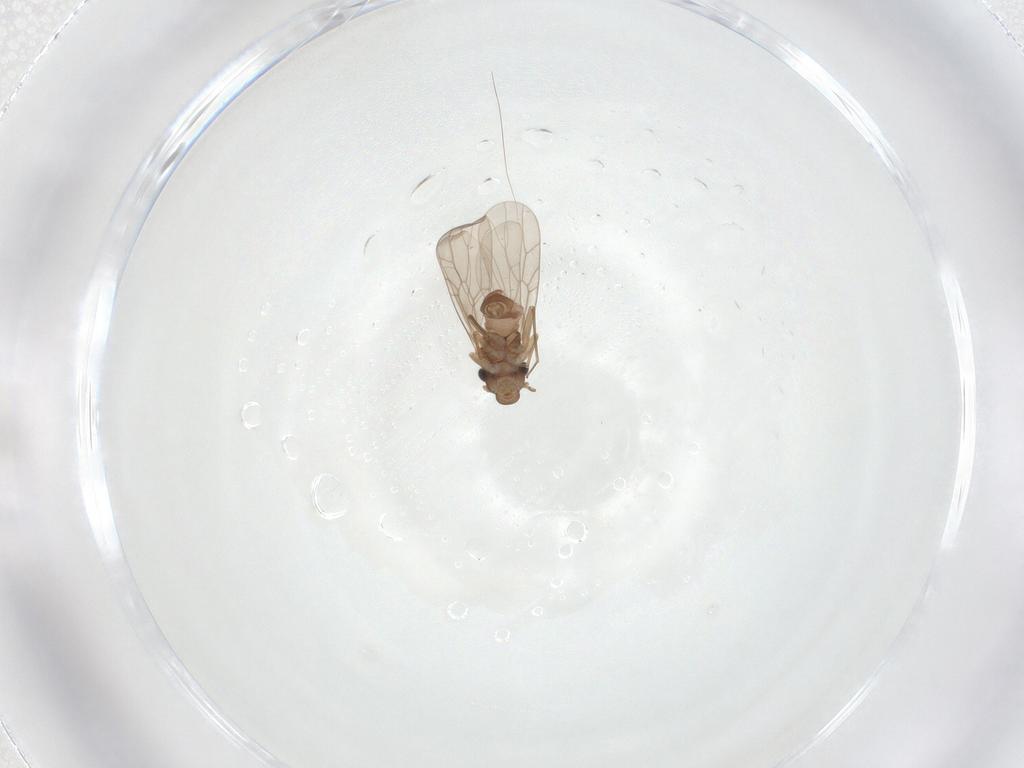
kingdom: Animalia
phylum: Arthropoda
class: Insecta
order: Psocodea
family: Lepidopsocidae
